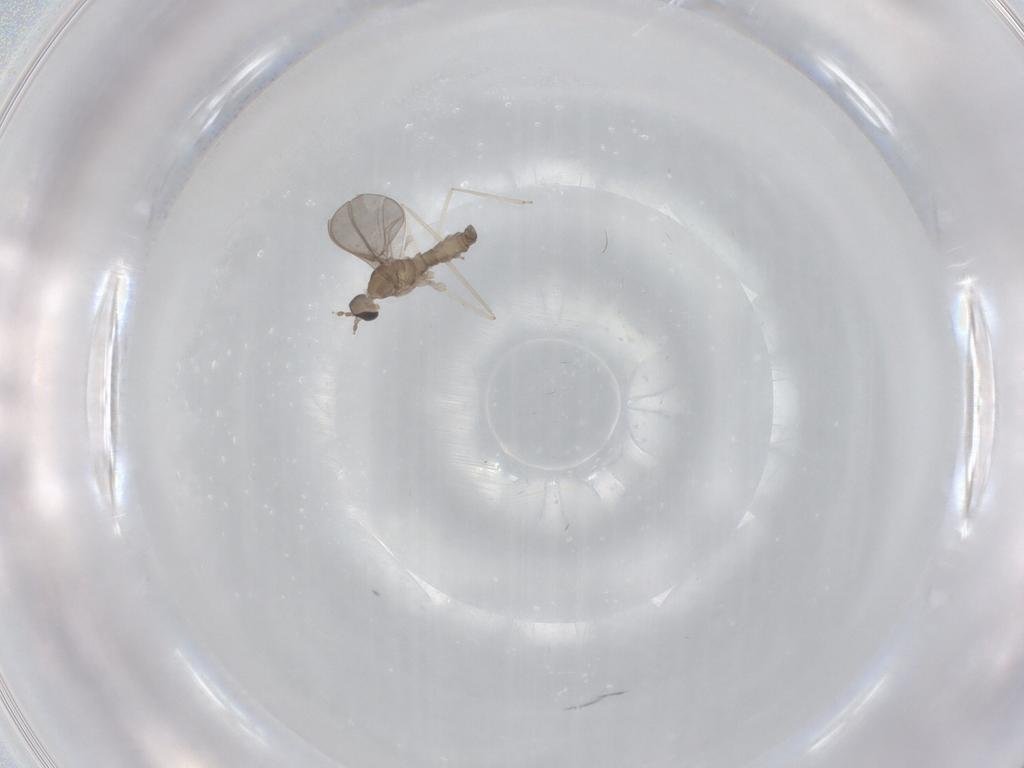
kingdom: Animalia
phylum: Arthropoda
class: Insecta
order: Diptera
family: Cecidomyiidae
